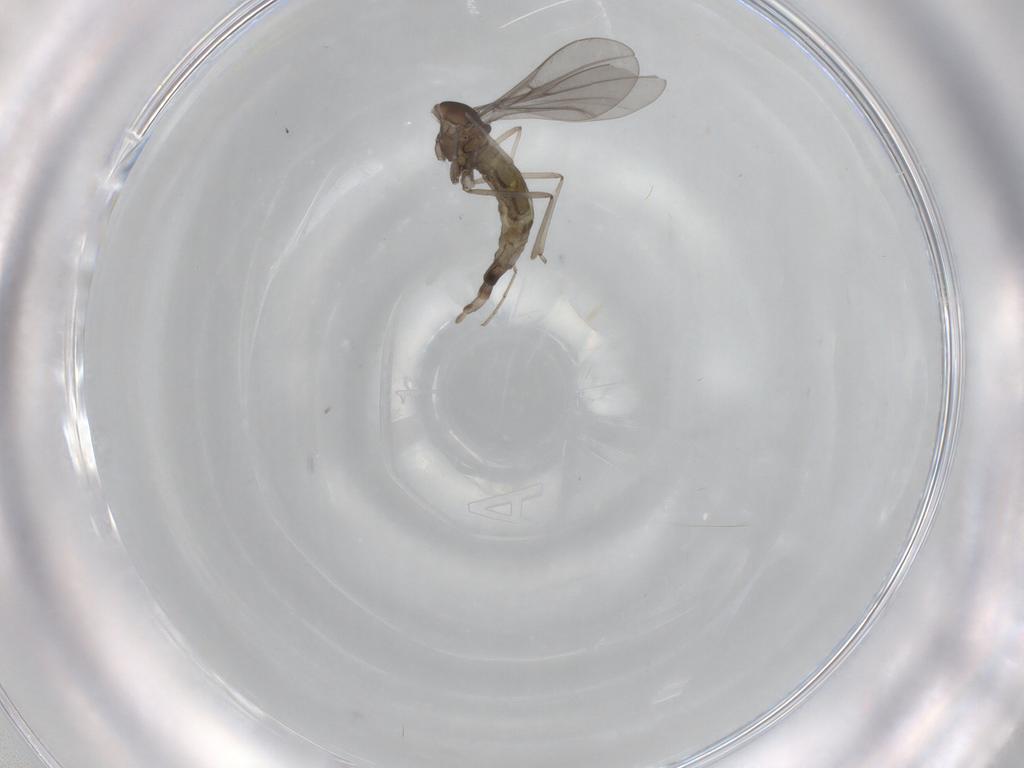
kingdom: Animalia
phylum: Arthropoda
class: Insecta
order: Diptera
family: Cecidomyiidae
